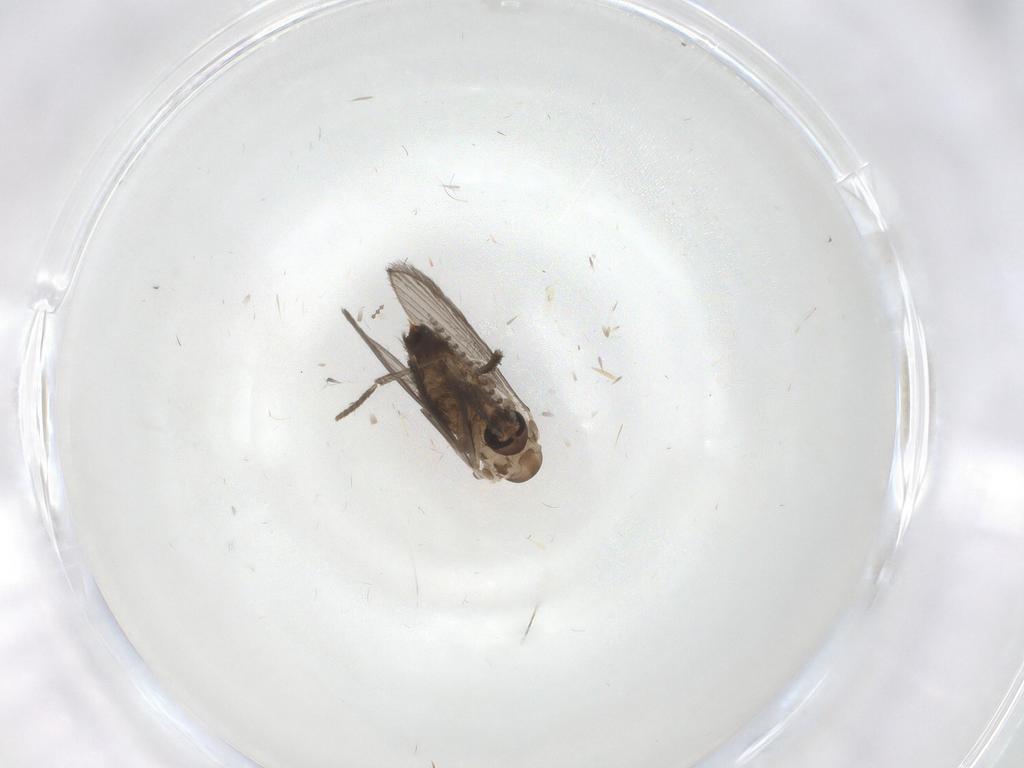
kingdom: Animalia
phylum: Arthropoda
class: Insecta
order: Diptera
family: Psychodidae
